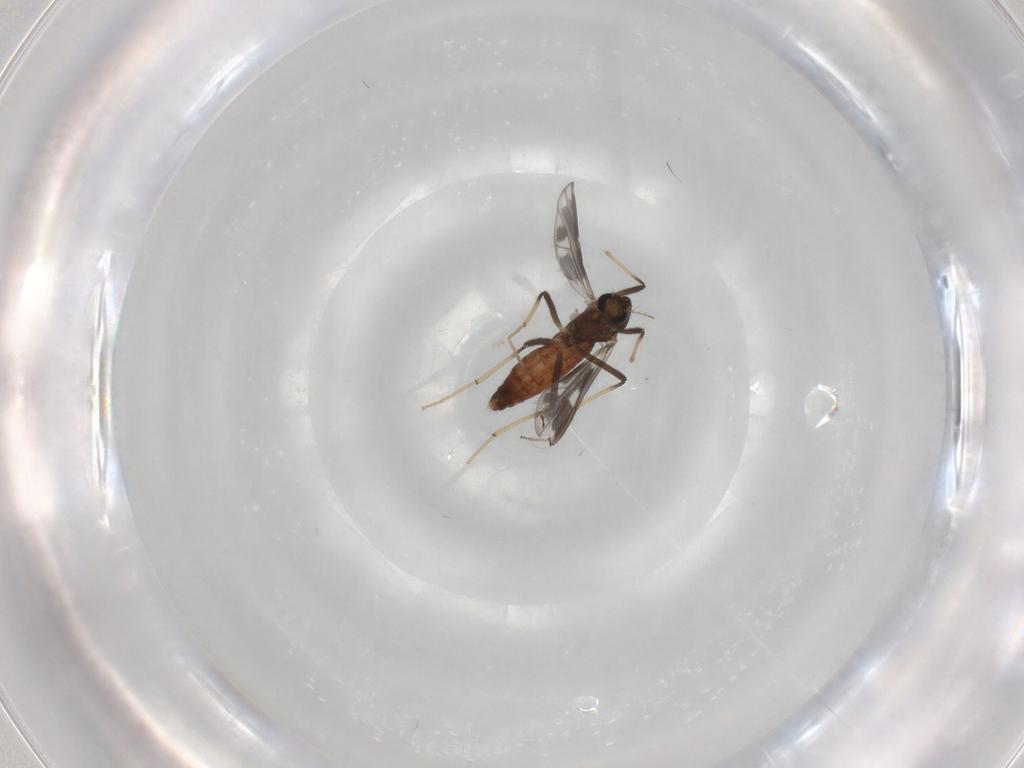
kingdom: Animalia
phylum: Arthropoda
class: Insecta
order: Diptera
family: Chironomidae
